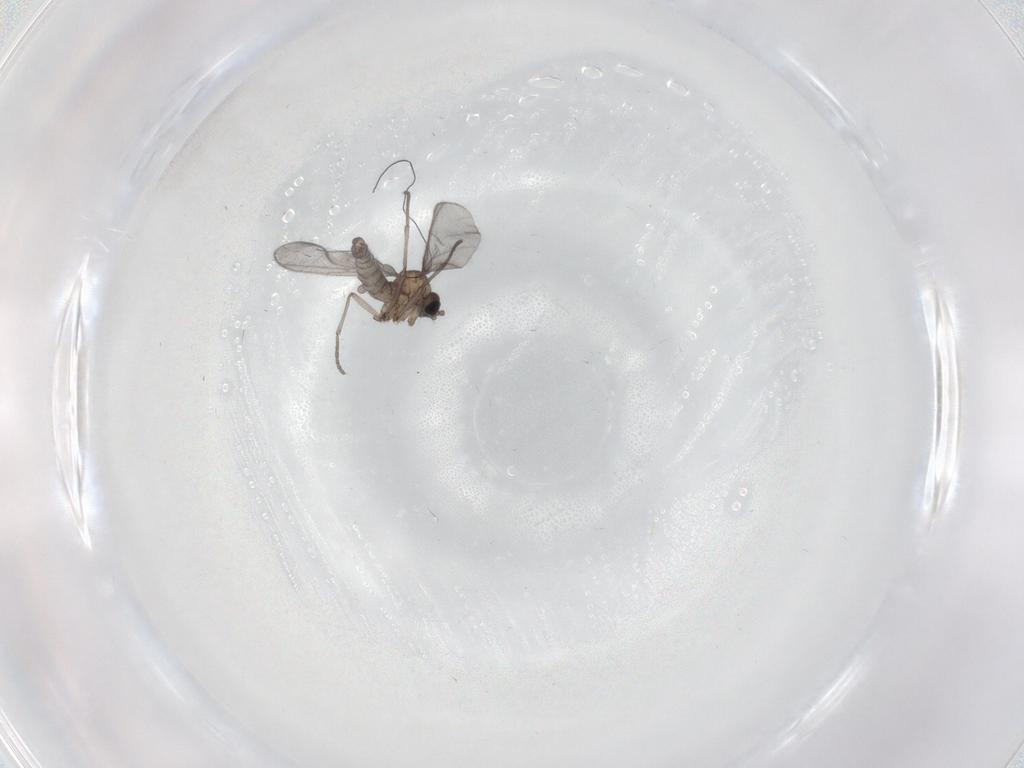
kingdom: Animalia
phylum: Arthropoda
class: Insecta
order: Diptera
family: Sciaridae
